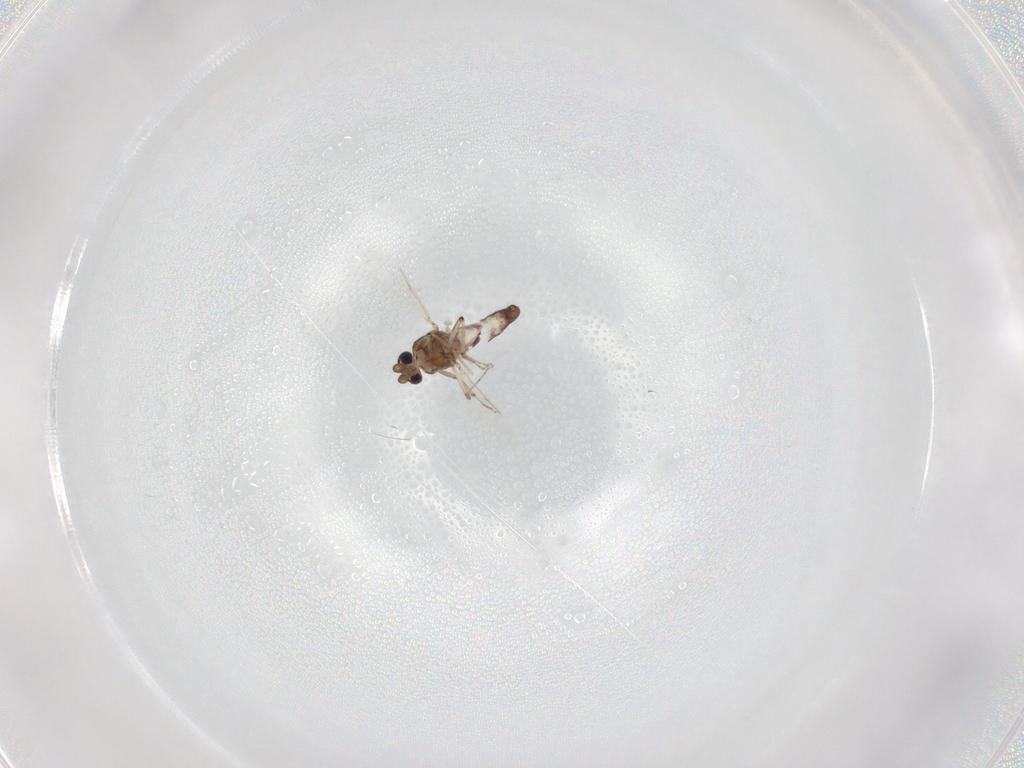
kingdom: Animalia
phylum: Arthropoda
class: Insecta
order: Diptera
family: Ceratopogonidae
